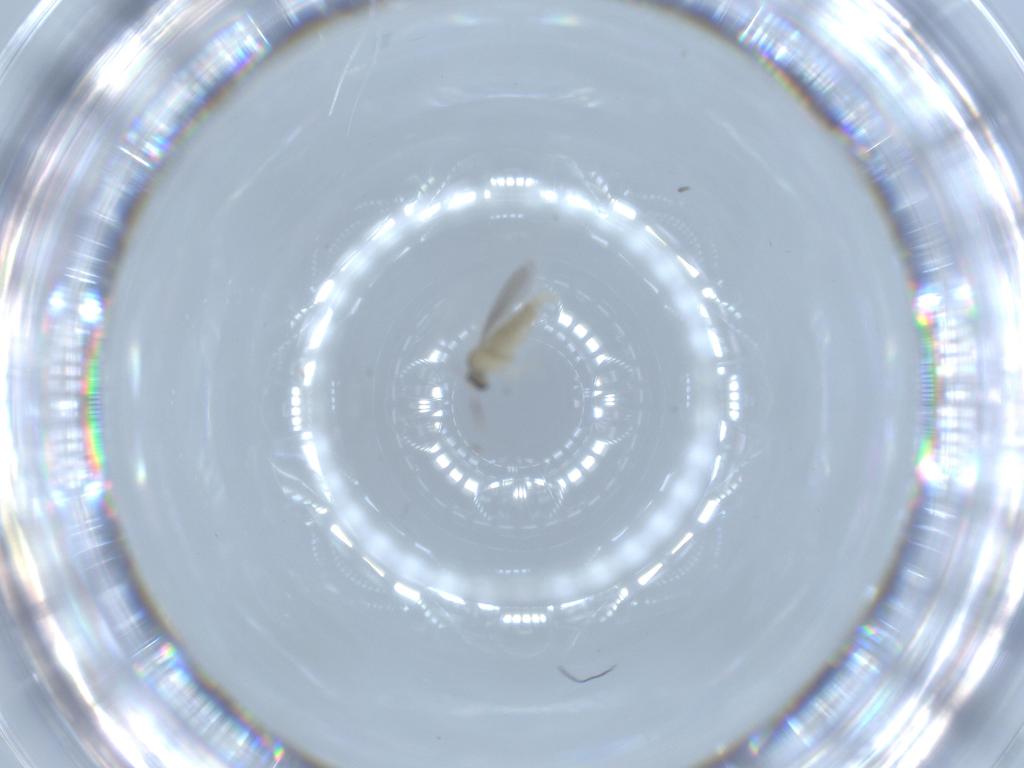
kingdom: Animalia
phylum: Arthropoda
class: Insecta
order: Diptera
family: Cecidomyiidae
